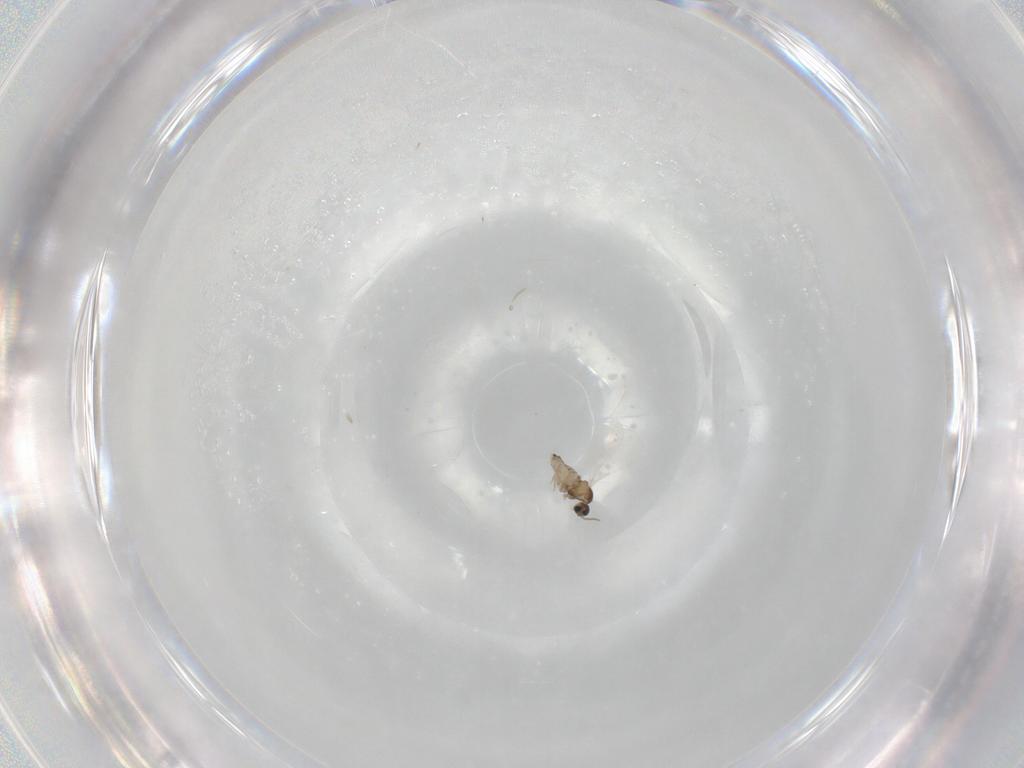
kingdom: Animalia
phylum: Arthropoda
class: Insecta
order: Diptera
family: Cecidomyiidae
